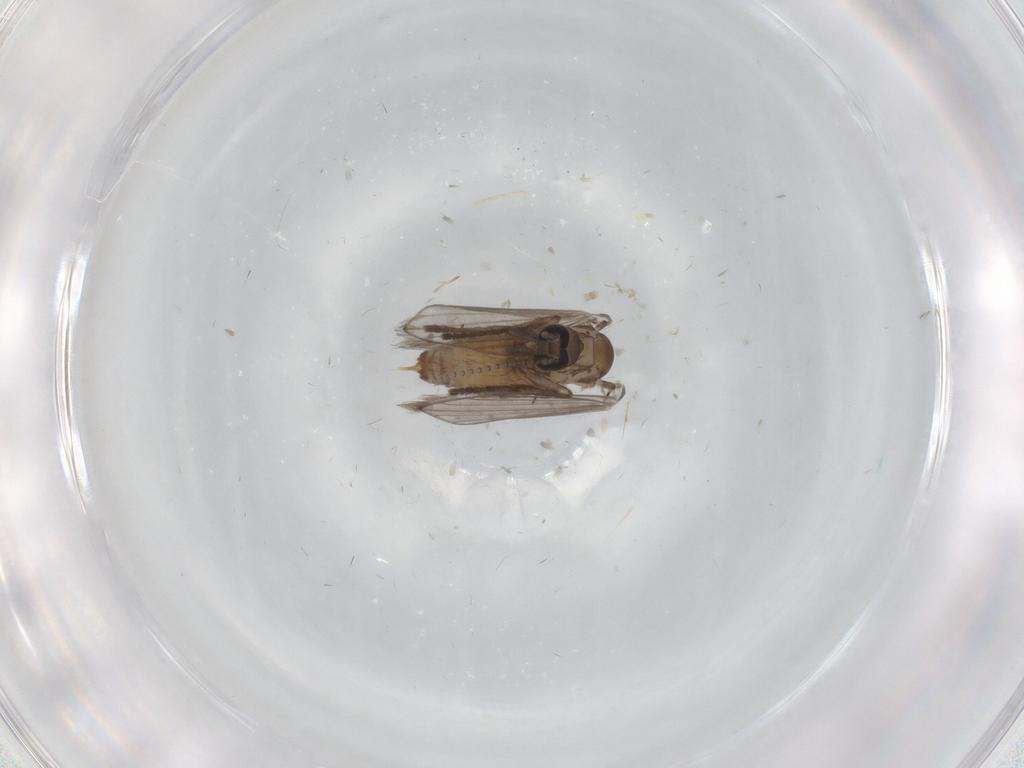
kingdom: Animalia
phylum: Arthropoda
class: Insecta
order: Diptera
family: Psychodidae
